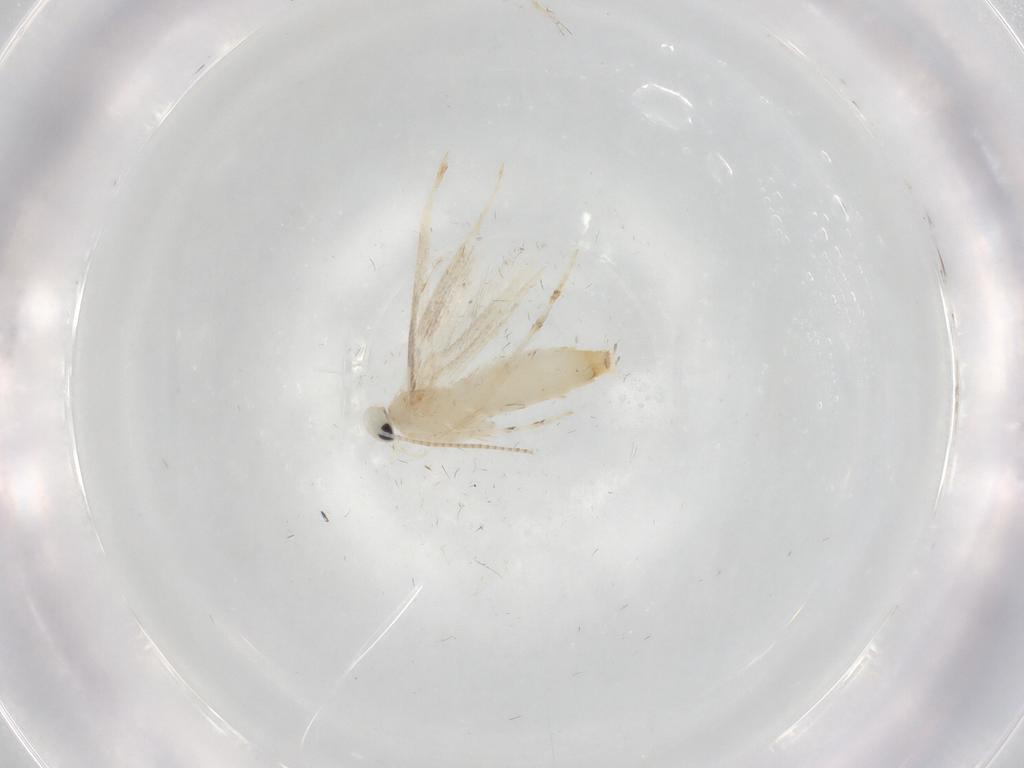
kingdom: Animalia
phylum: Arthropoda
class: Insecta
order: Lepidoptera
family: Gracillariidae
